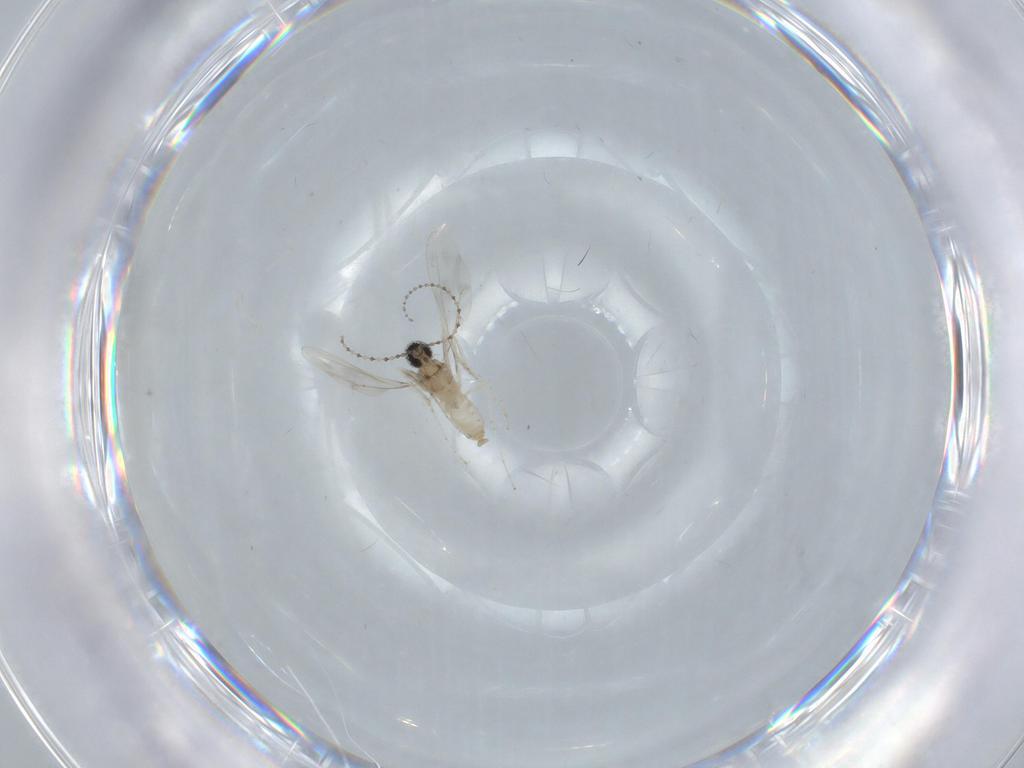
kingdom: Animalia
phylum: Arthropoda
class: Insecta
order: Diptera
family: Cecidomyiidae
